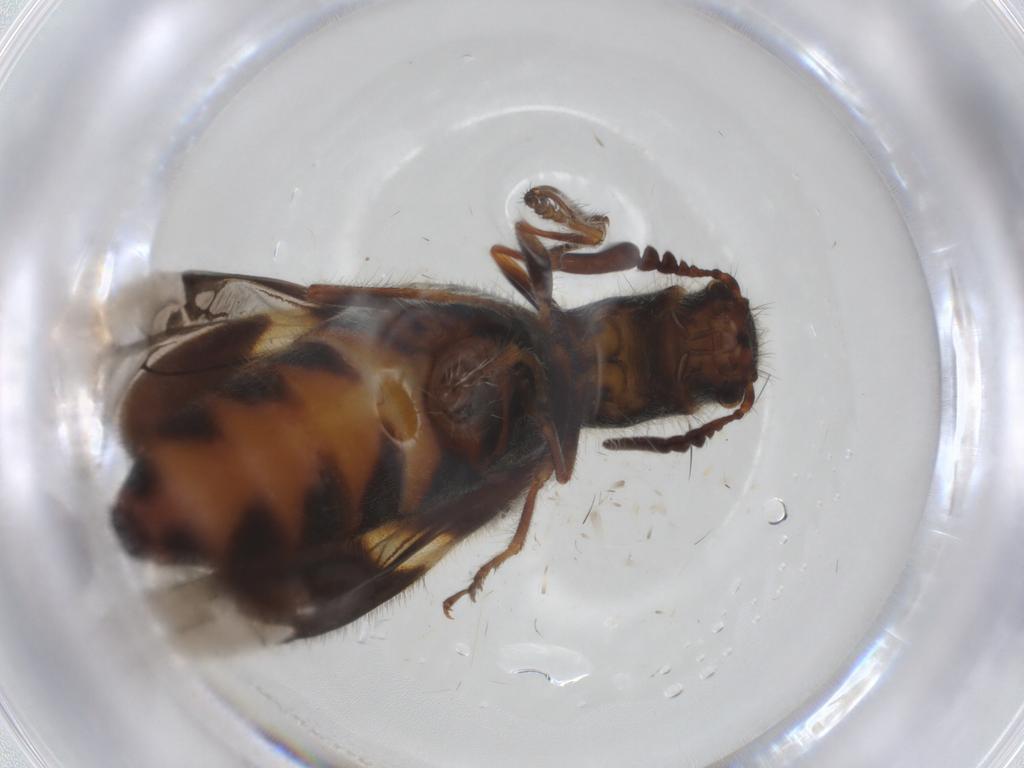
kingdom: Animalia
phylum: Arthropoda
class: Insecta
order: Coleoptera
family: Cleridae
